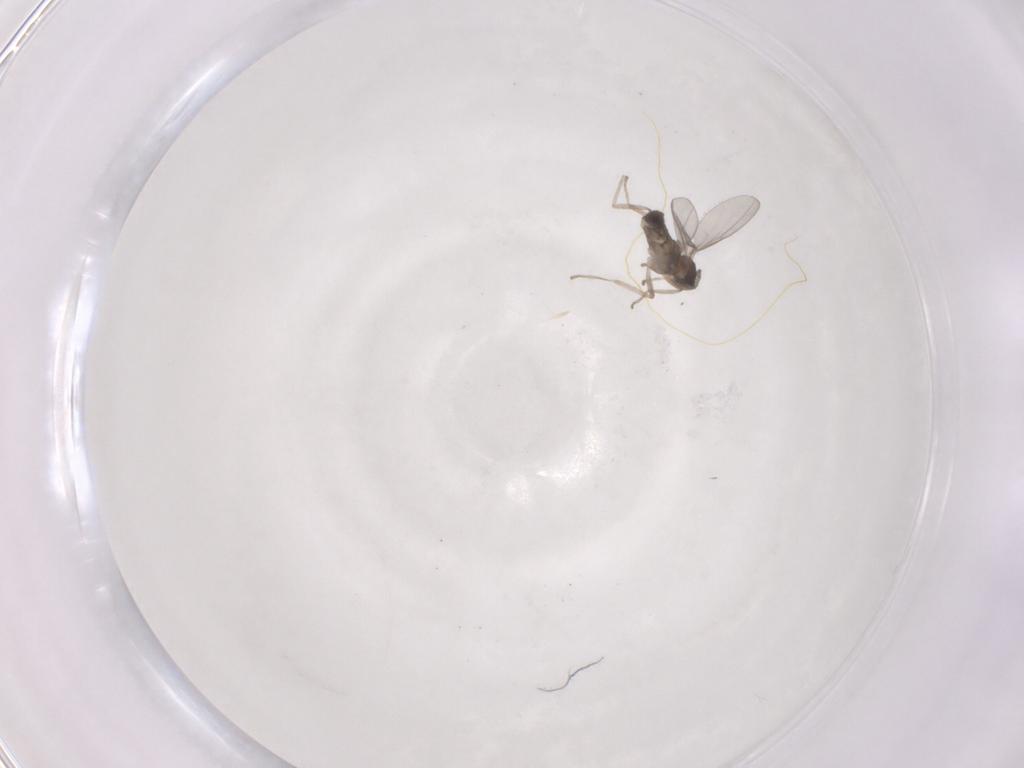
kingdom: Animalia
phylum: Arthropoda
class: Insecta
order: Diptera
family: Cecidomyiidae
